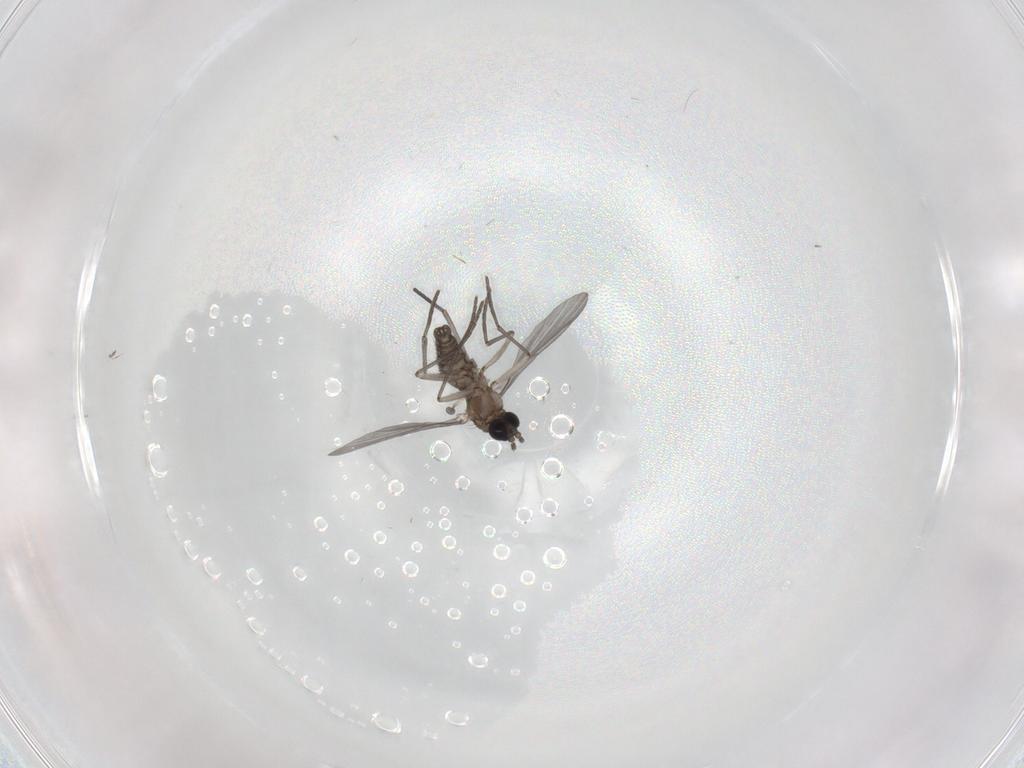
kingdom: Animalia
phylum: Arthropoda
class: Insecta
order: Diptera
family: Chironomidae
